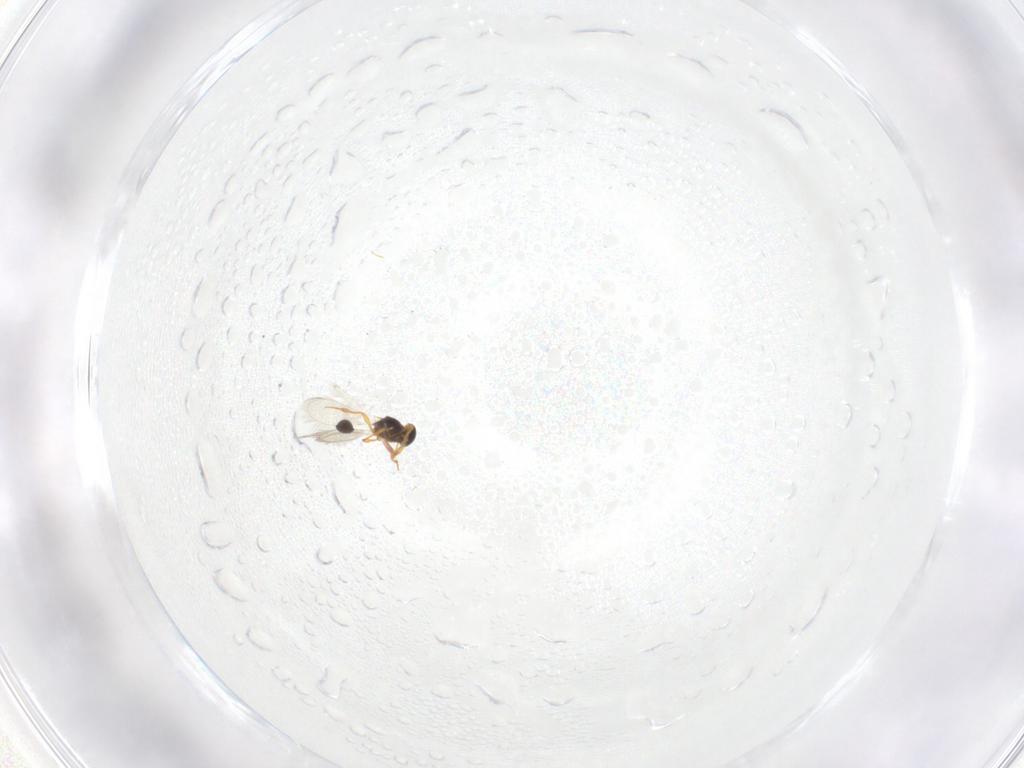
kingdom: Animalia
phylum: Arthropoda
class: Insecta
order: Hymenoptera
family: Platygastridae
